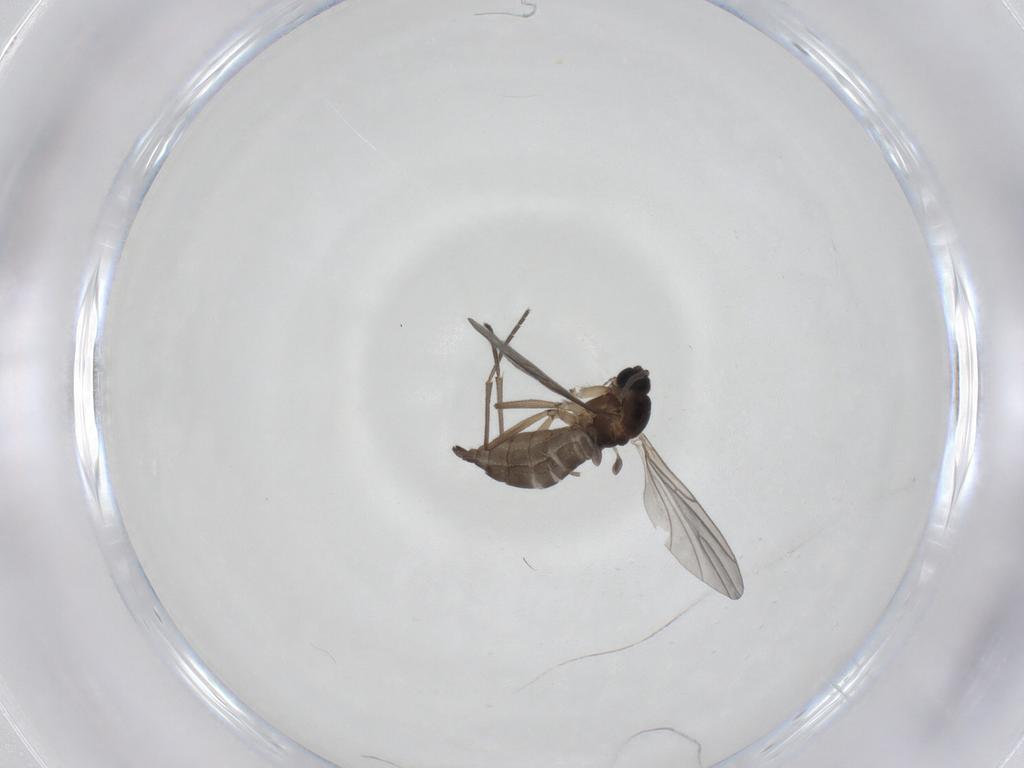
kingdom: Animalia
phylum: Arthropoda
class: Insecta
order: Diptera
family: Sciaridae
